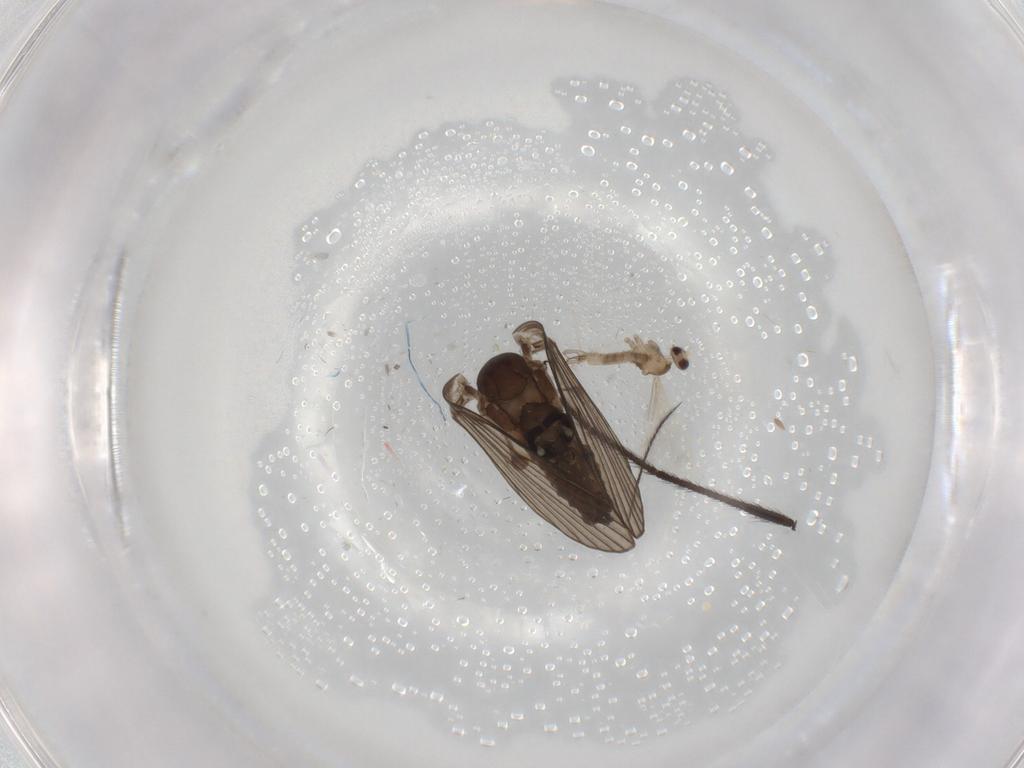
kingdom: Animalia
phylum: Arthropoda
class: Insecta
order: Diptera
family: Psychodidae
